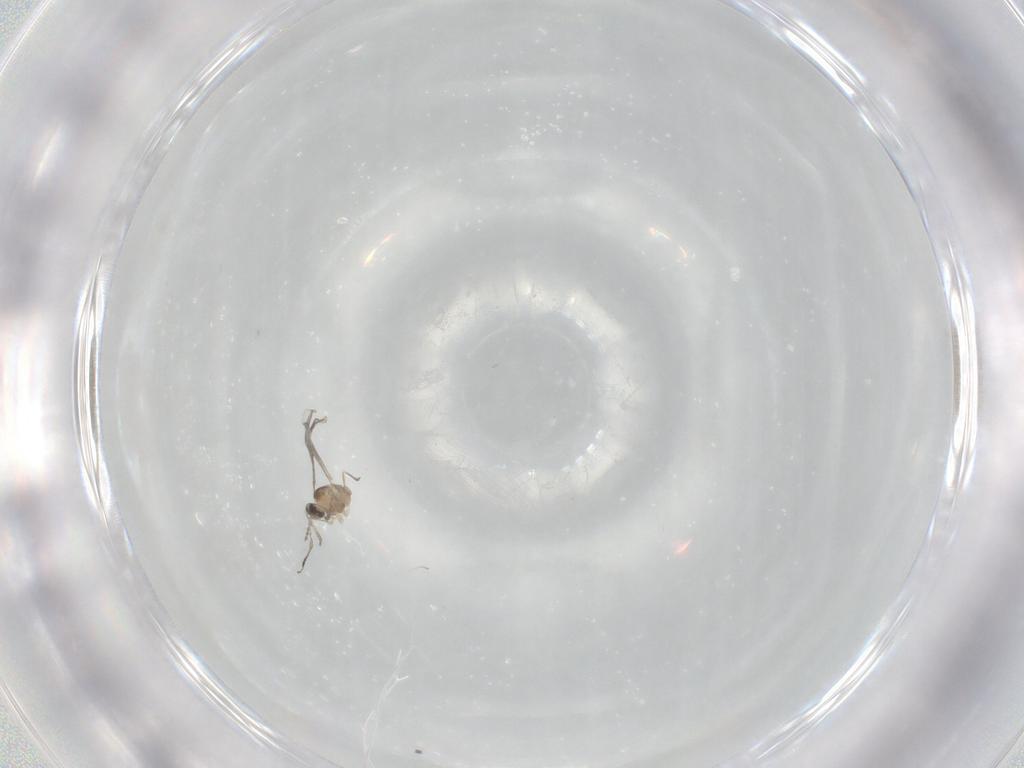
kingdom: Animalia
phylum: Arthropoda
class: Insecta
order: Diptera
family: Cecidomyiidae
